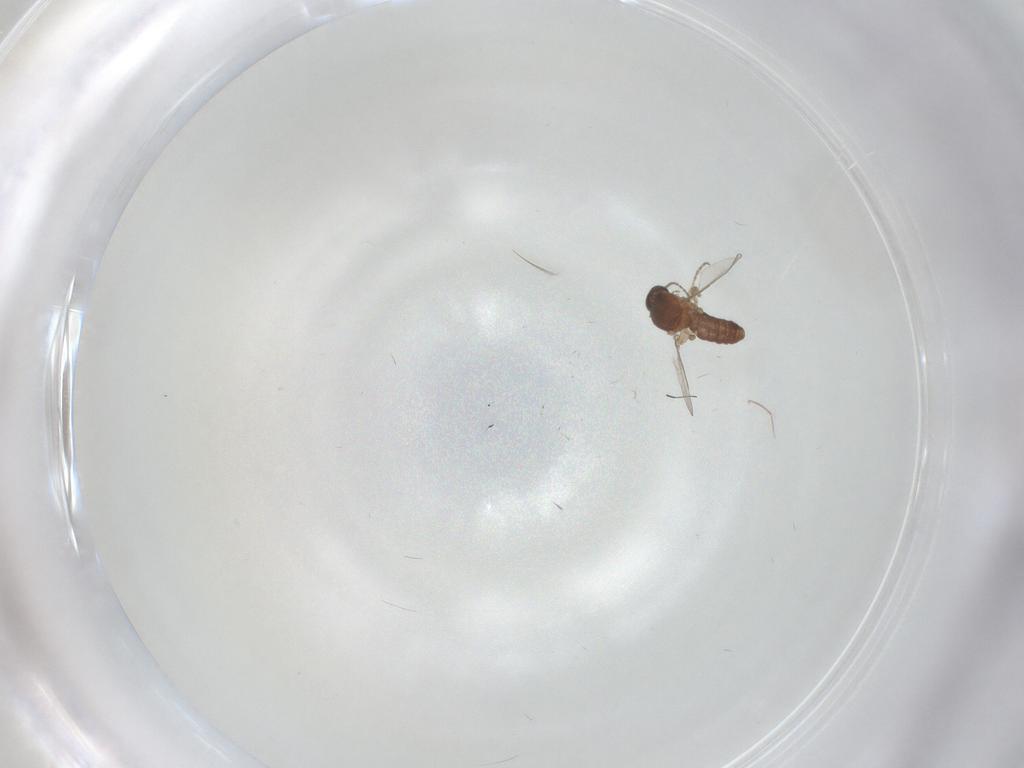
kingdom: Animalia
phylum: Arthropoda
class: Insecta
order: Diptera
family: Ceratopogonidae
